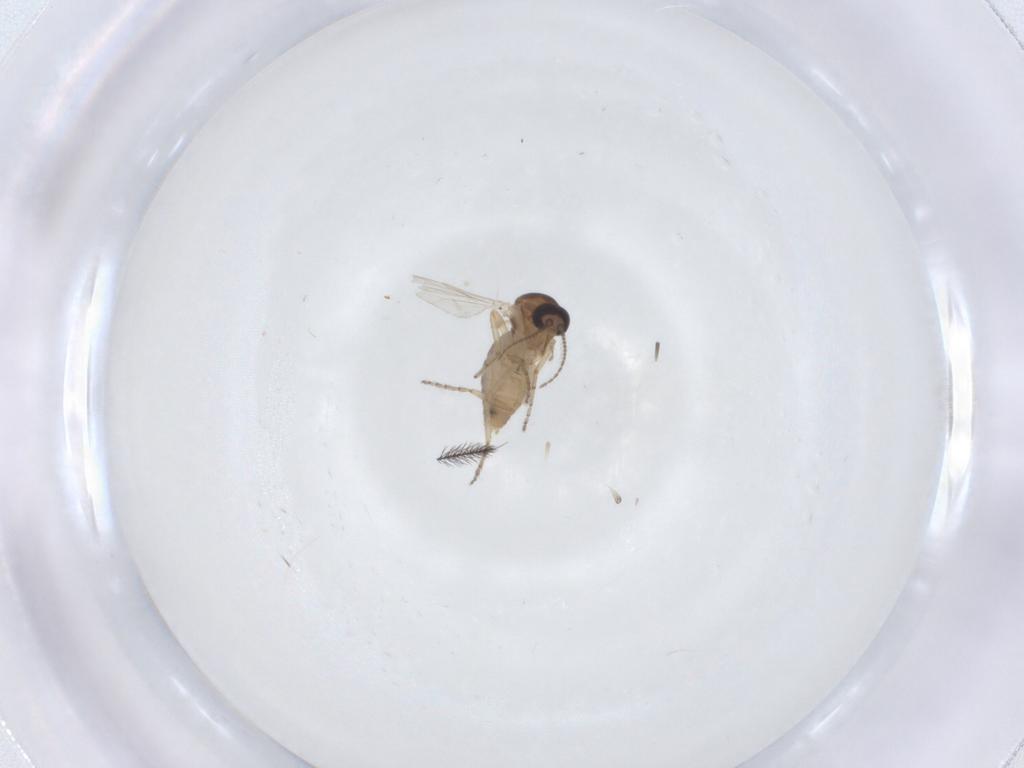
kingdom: Animalia
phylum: Arthropoda
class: Insecta
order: Diptera
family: Ceratopogonidae
